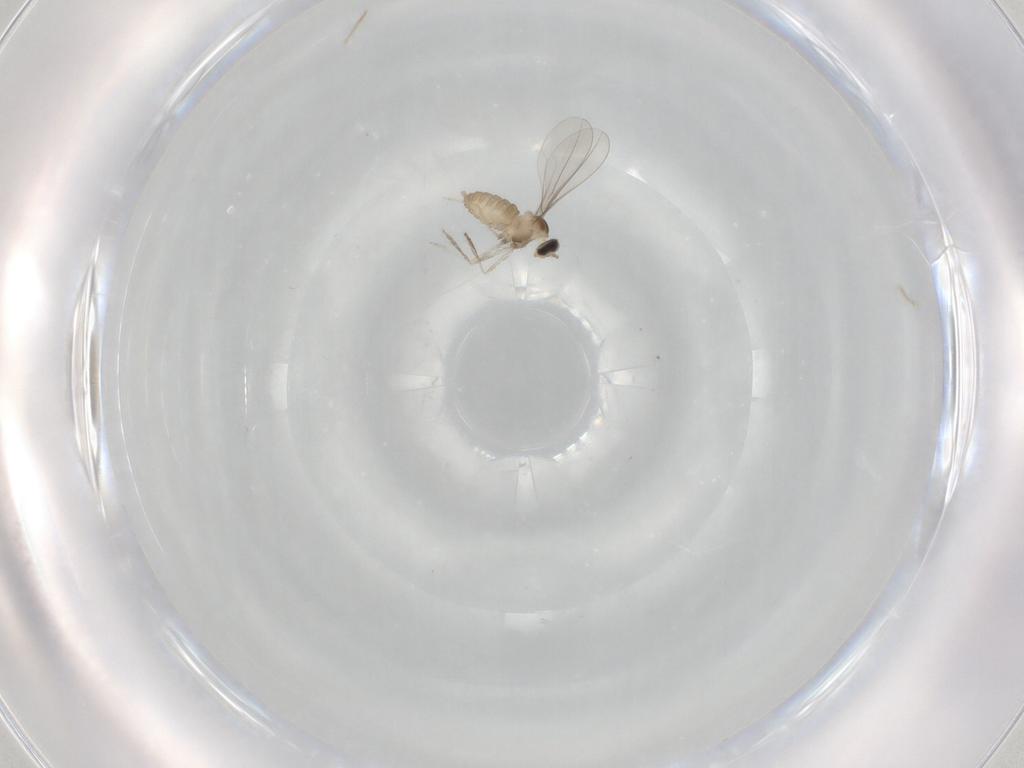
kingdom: Animalia
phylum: Arthropoda
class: Insecta
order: Diptera
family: Cecidomyiidae
